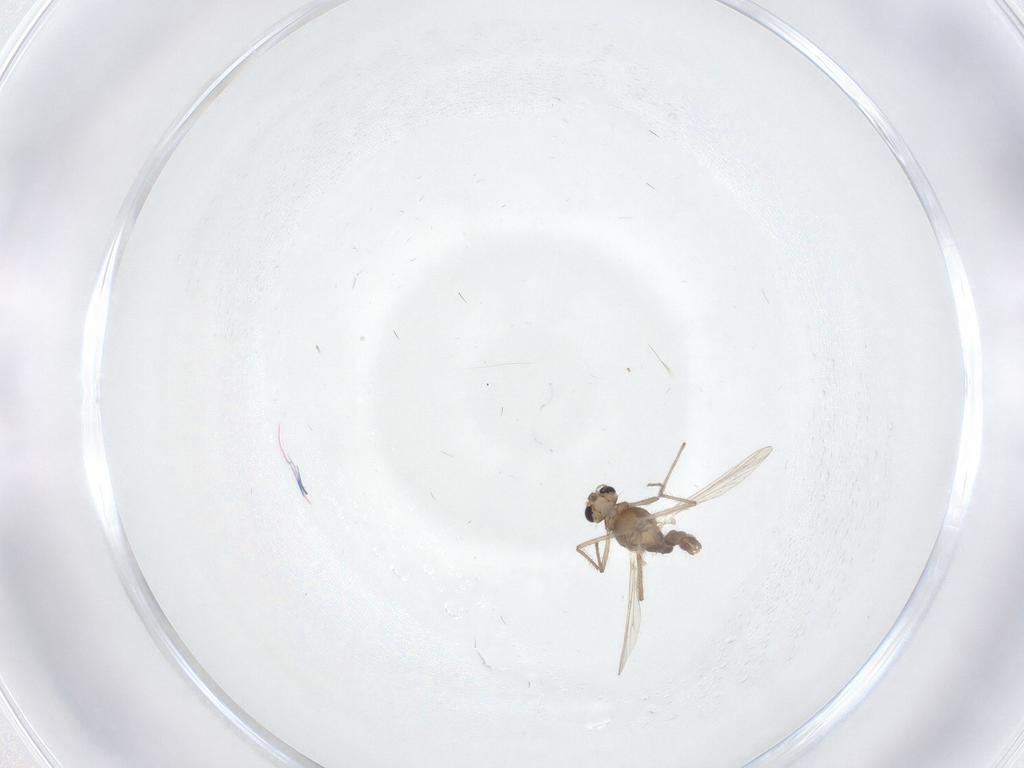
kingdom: Animalia
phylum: Arthropoda
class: Insecta
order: Diptera
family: Chironomidae
